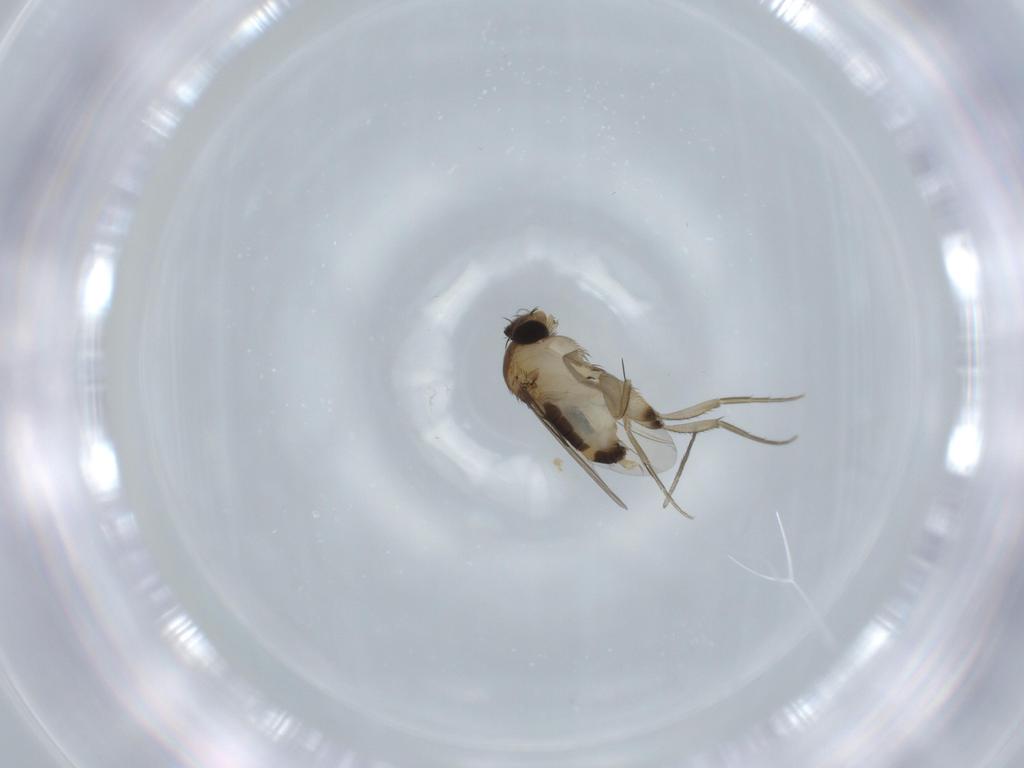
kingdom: Animalia
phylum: Arthropoda
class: Insecta
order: Diptera
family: Phoridae
